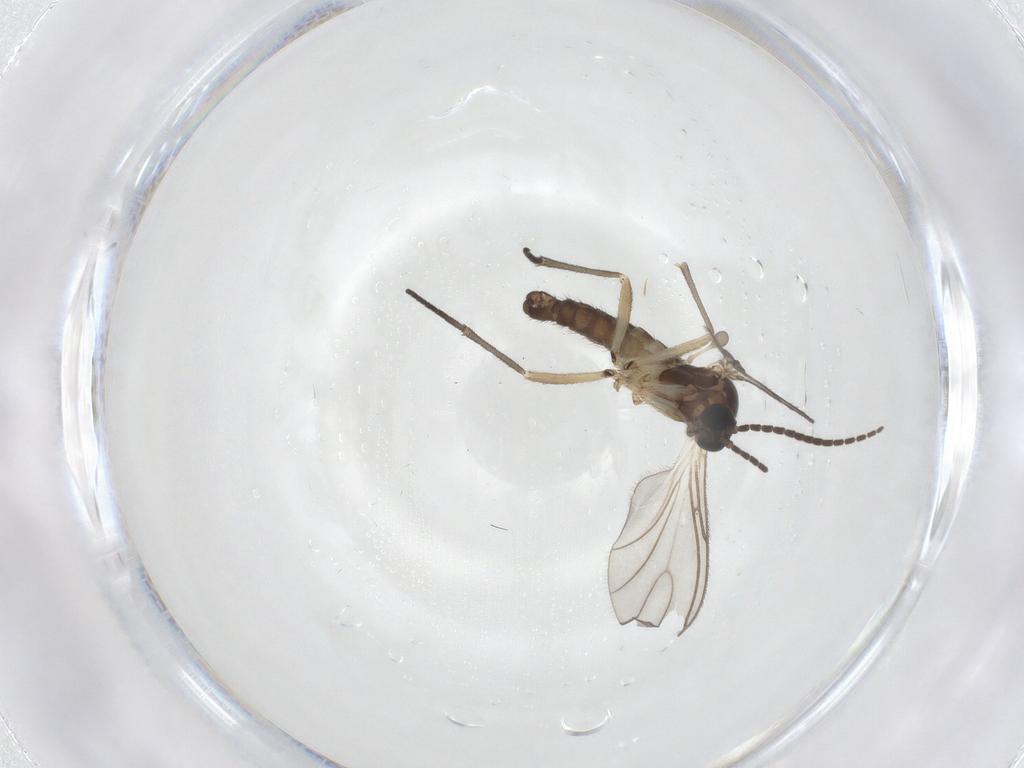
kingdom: Animalia
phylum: Arthropoda
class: Insecta
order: Diptera
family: Sciaridae
